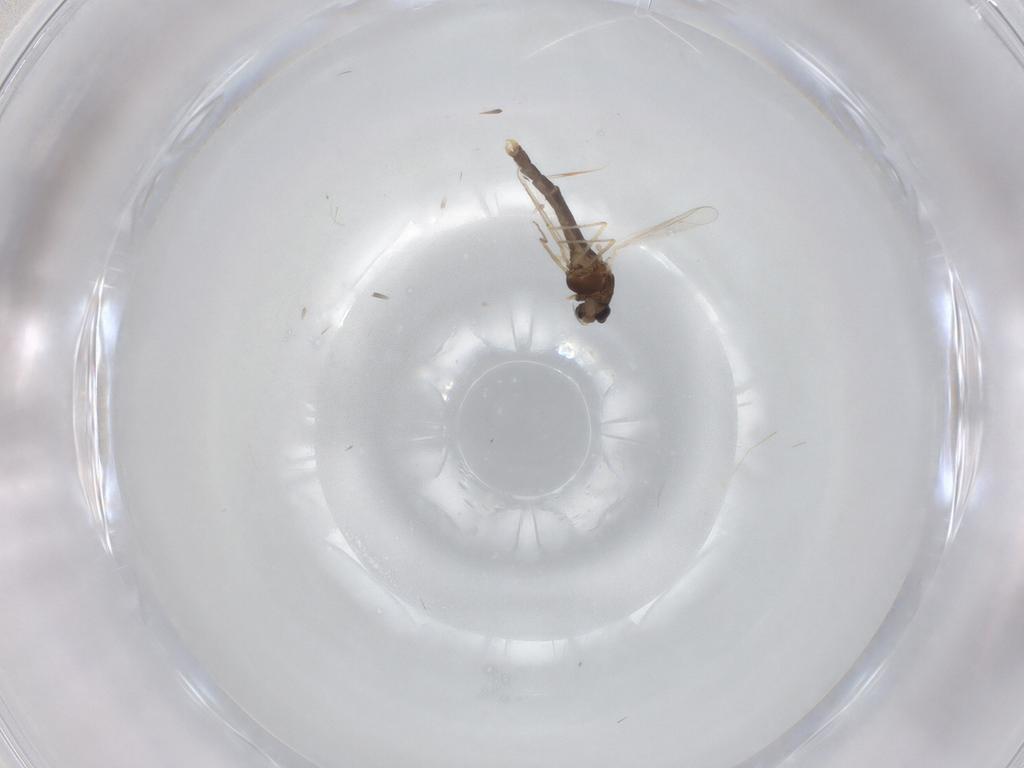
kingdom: Animalia
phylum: Arthropoda
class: Insecta
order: Diptera
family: Chironomidae
